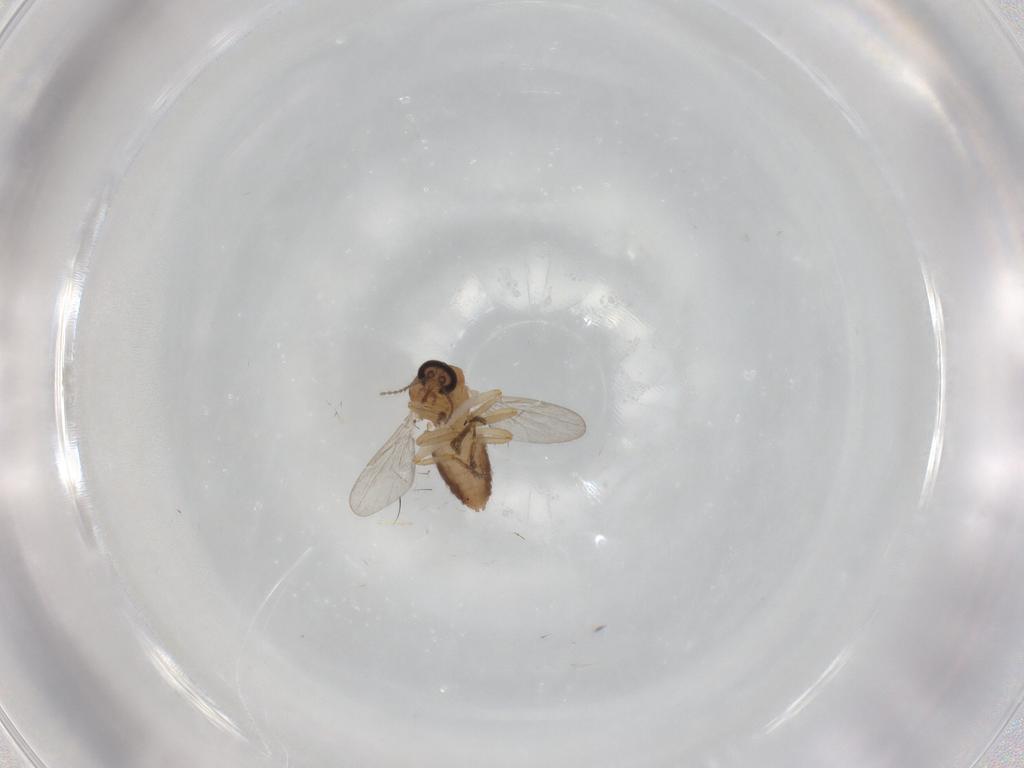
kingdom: Animalia
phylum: Arthropoda
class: Insecta
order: Diptera
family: Ceratopogonidae
